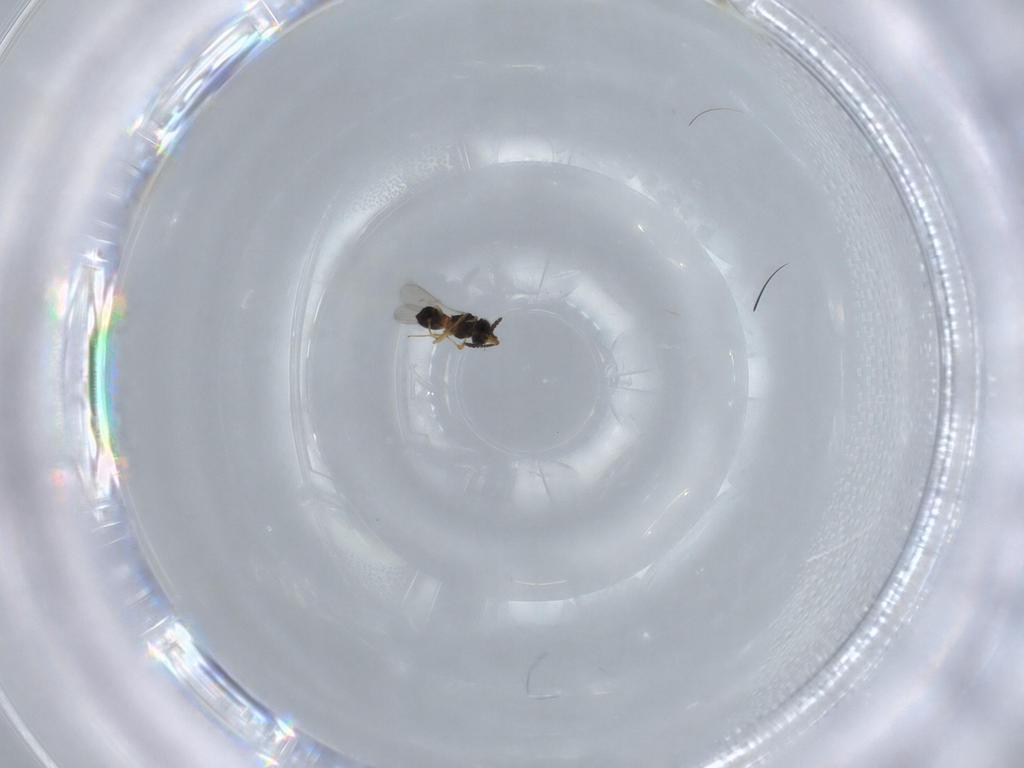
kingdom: Animalia
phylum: Arthropoda
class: Insecta
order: Hymenoptera
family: Scelionidae
